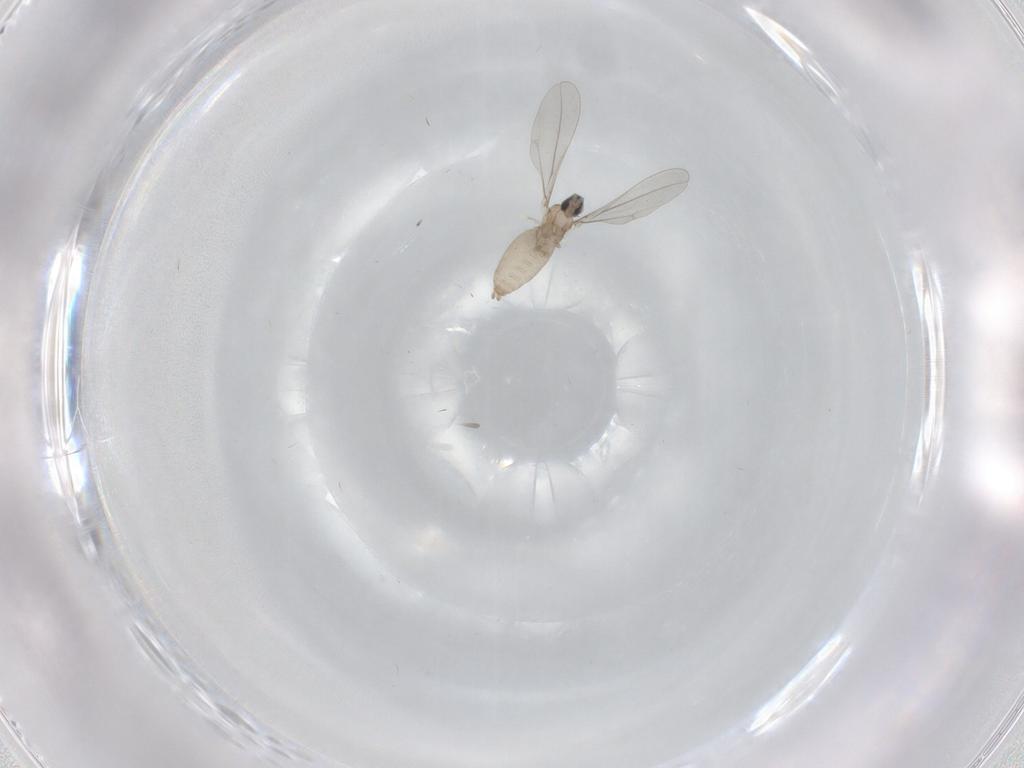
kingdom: Animalia
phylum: Arthropoda
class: Insecta
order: Diptera
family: Cecidomyiidae
